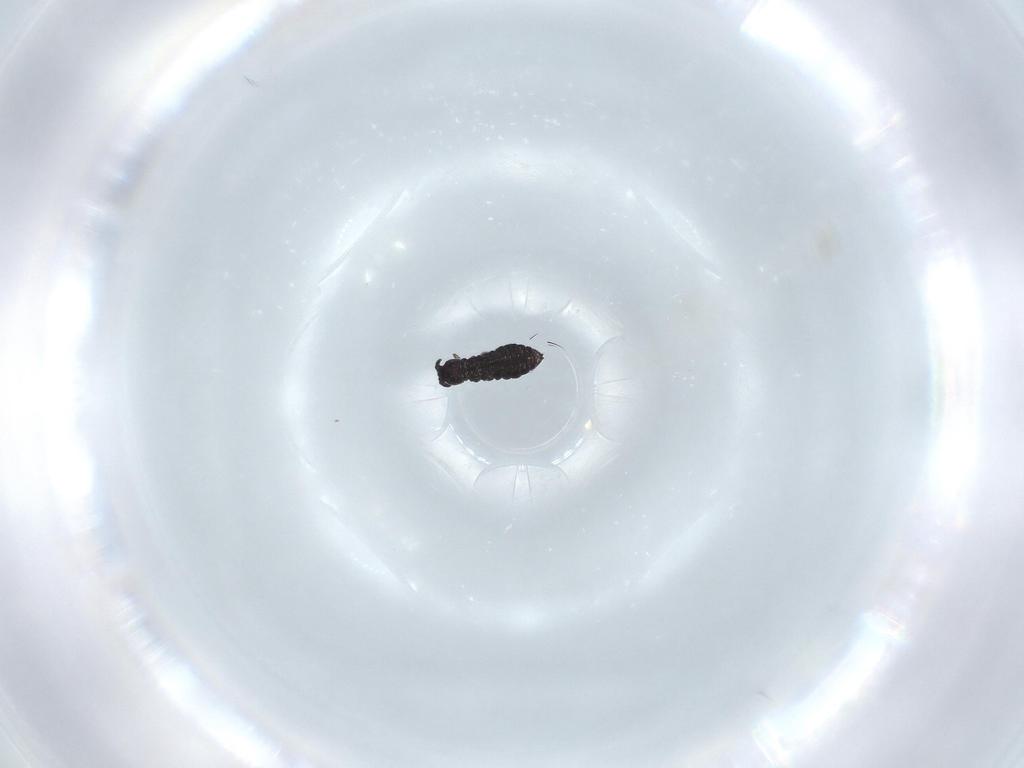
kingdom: Animalia
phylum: Arthropoda
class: Collembola
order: Poduromorpha
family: Hypogastruridae
